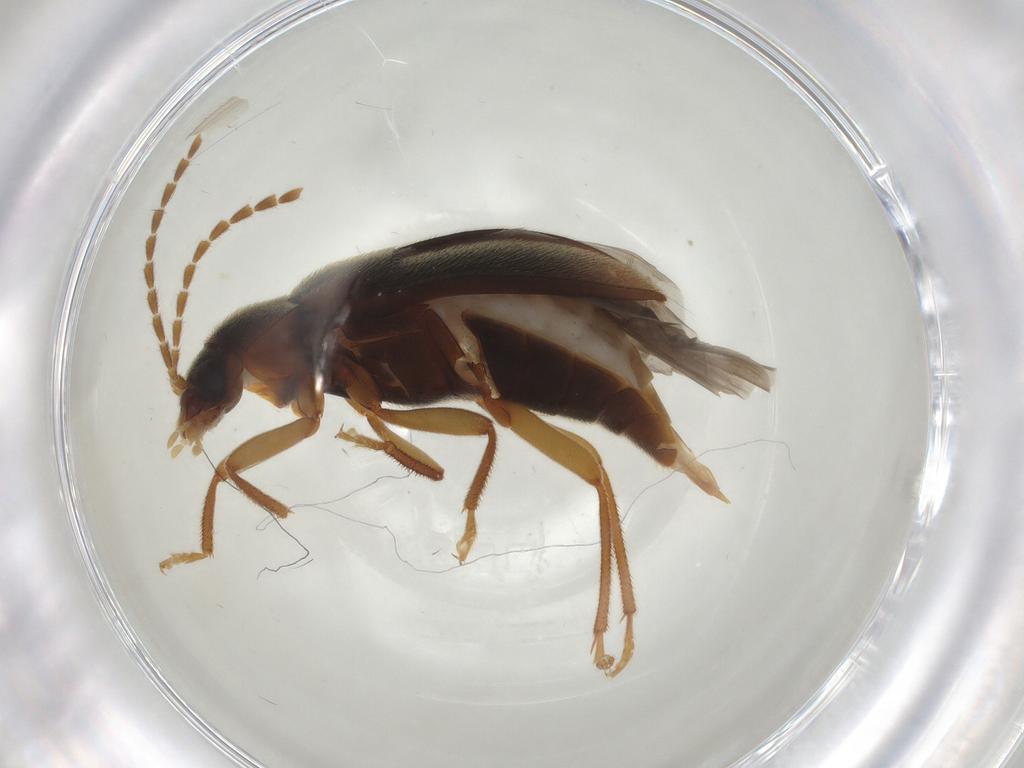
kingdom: Animalia
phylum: Arthropoda
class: Insecta
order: Coleoptera
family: Ptilodactylidae
